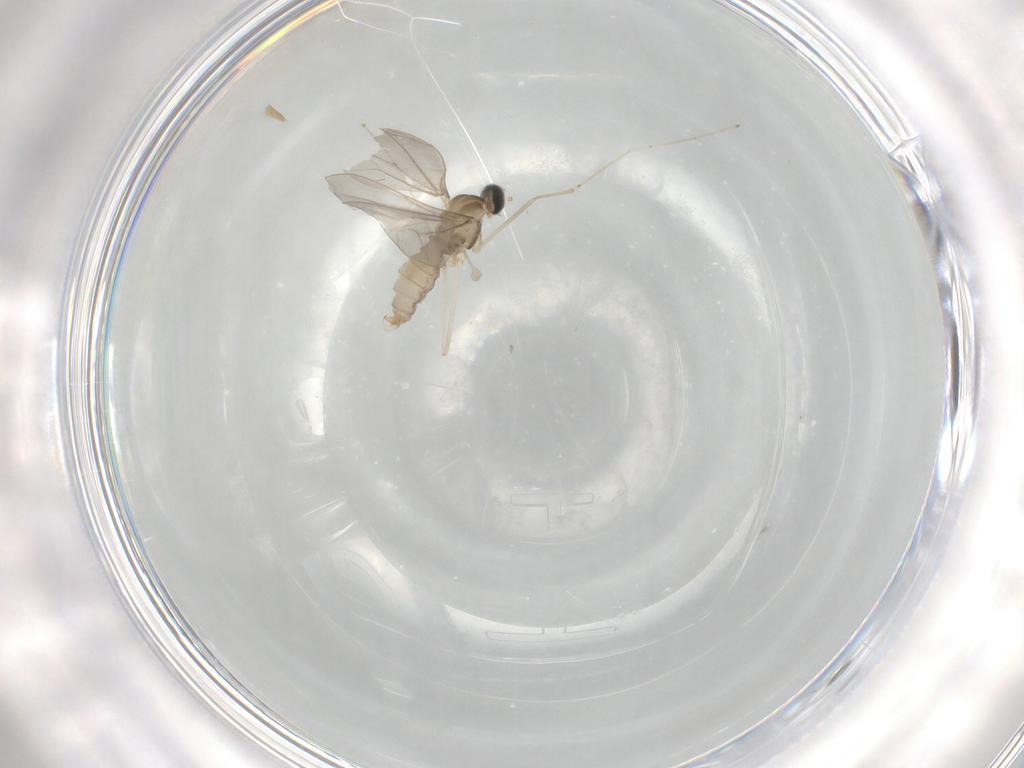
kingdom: Animalia
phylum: Arthropoda
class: Insecta
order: Diptera
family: Cecidomyiidae
